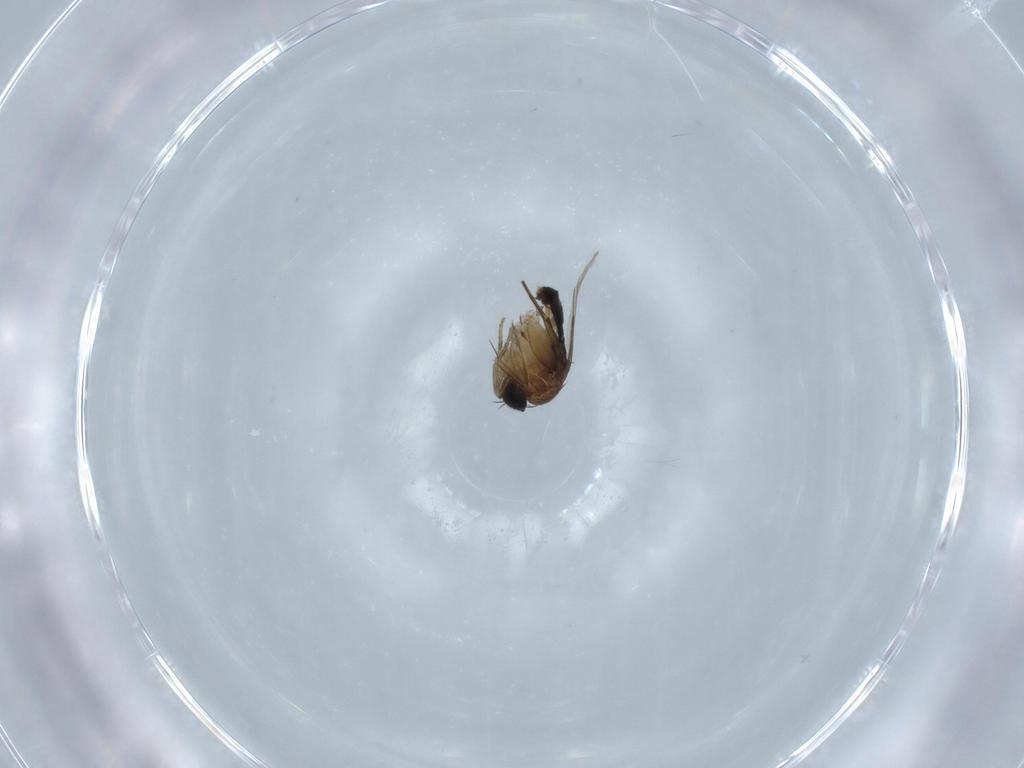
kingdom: Animalia
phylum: Arthropoda
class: Insecta
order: Diptera
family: Phoridae
